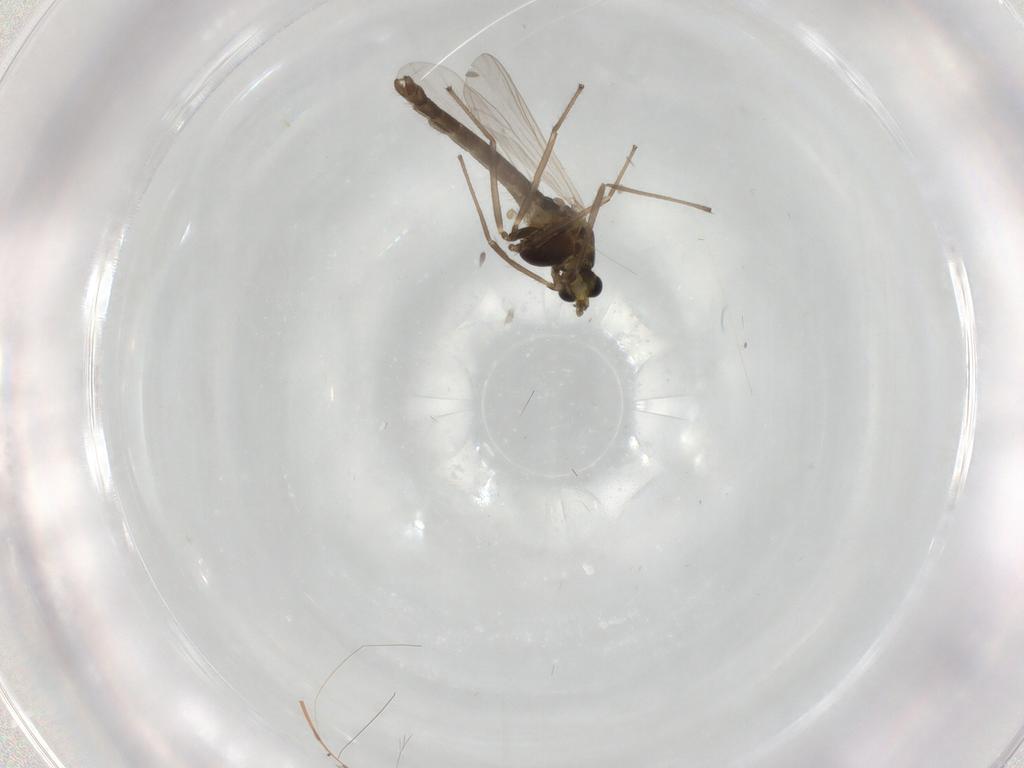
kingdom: Animalia
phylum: Arthropoda
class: Insecta
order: Diptera
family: Chironomidae
